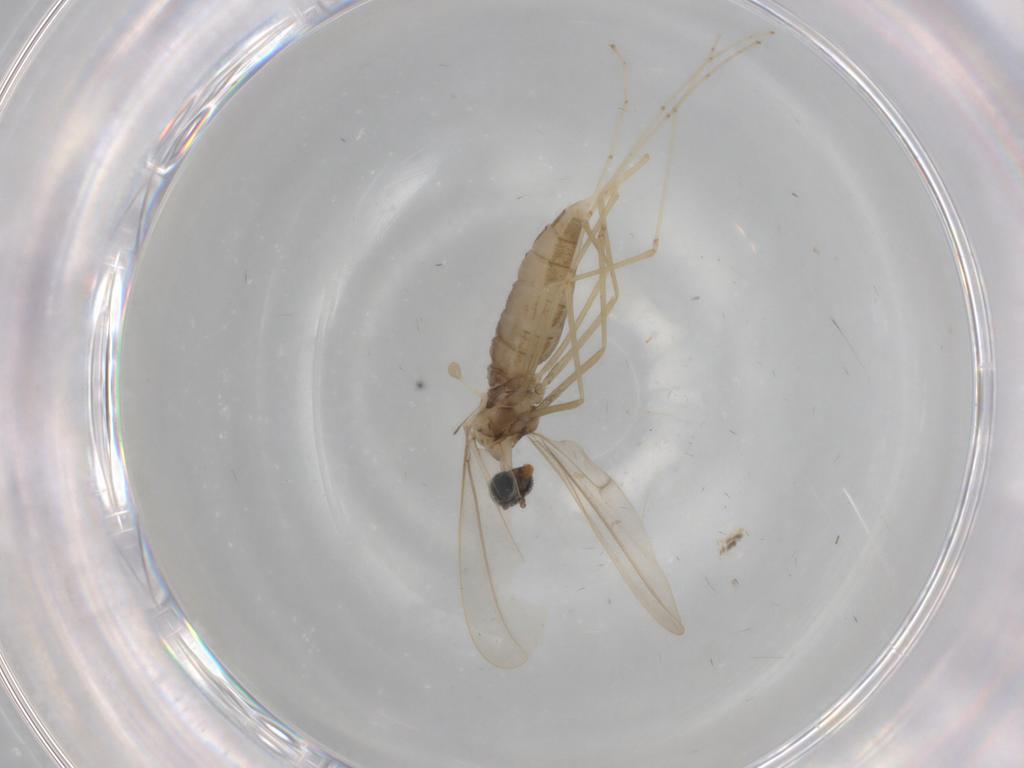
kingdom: Animalia
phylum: Arthropoda
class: Insecta
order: Diptera
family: Cecidomyiidae
